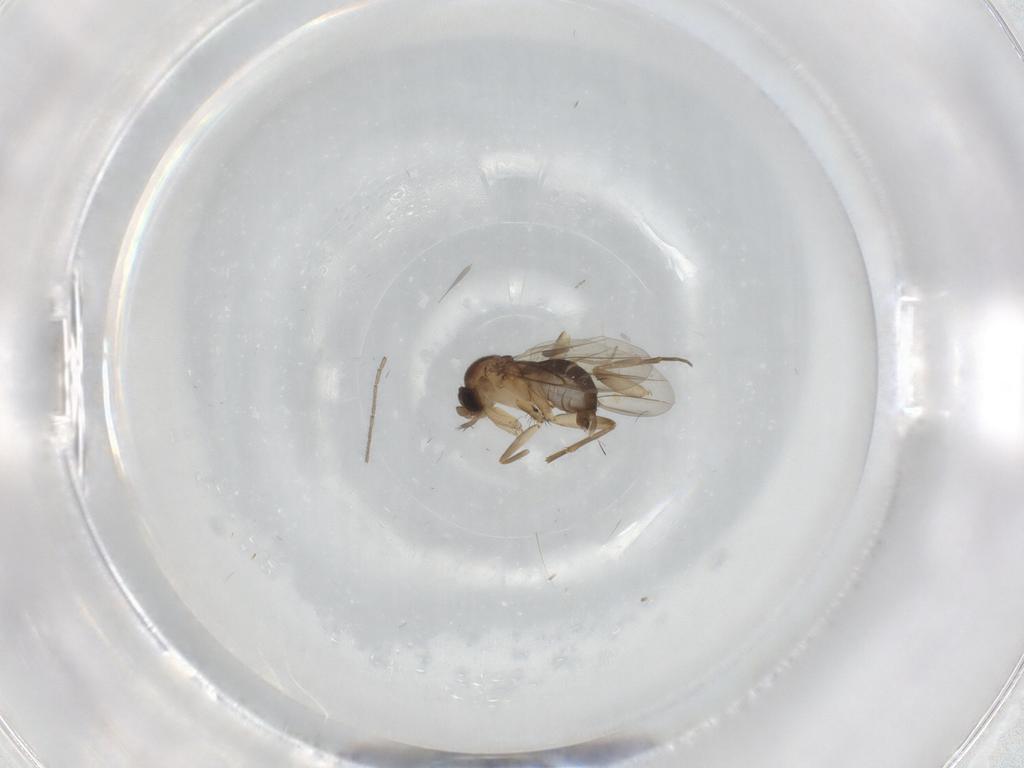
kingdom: Animalia
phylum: Arthropoda
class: Insecta
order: Diptera
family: Phoridae
